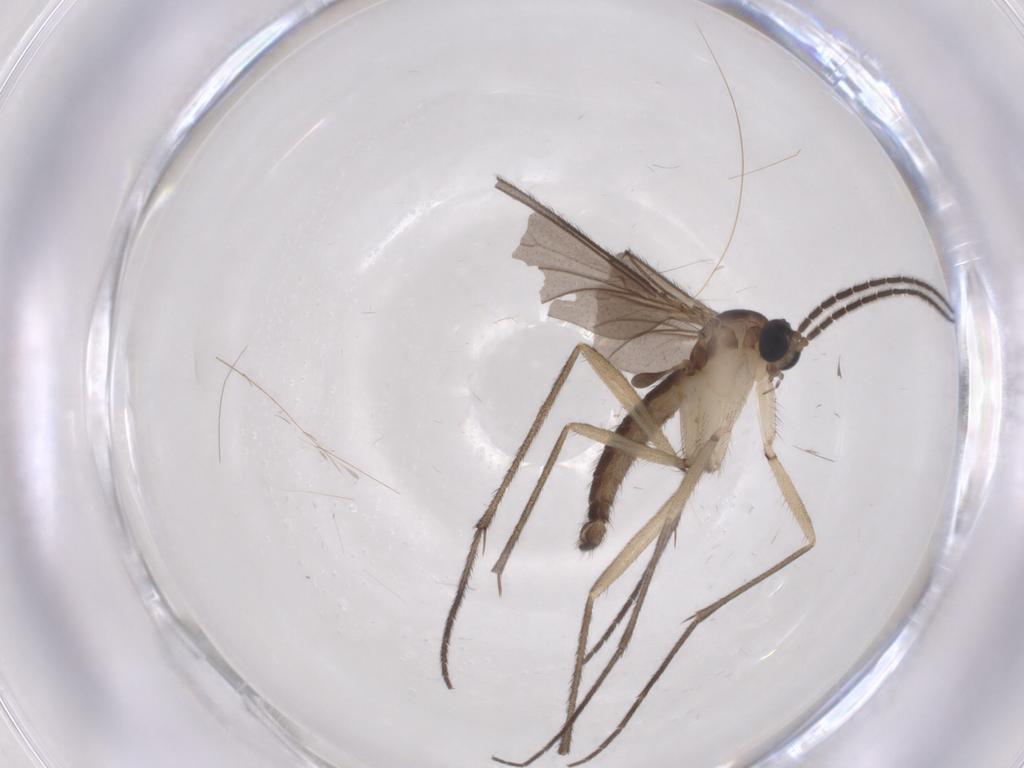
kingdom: Animalia
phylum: Arthropoda
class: Insecta
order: Diptera
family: Sciaridae
